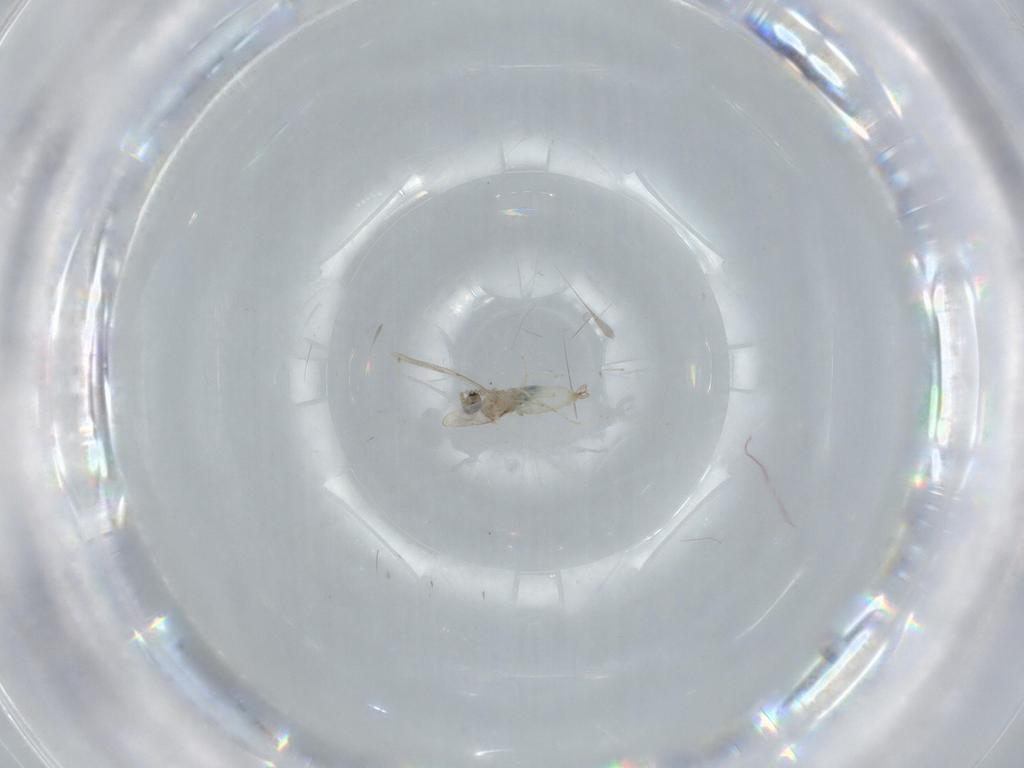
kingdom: Animalia
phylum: Arthropoda
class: Insecta
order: Diptera
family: Cecidomyiidae
